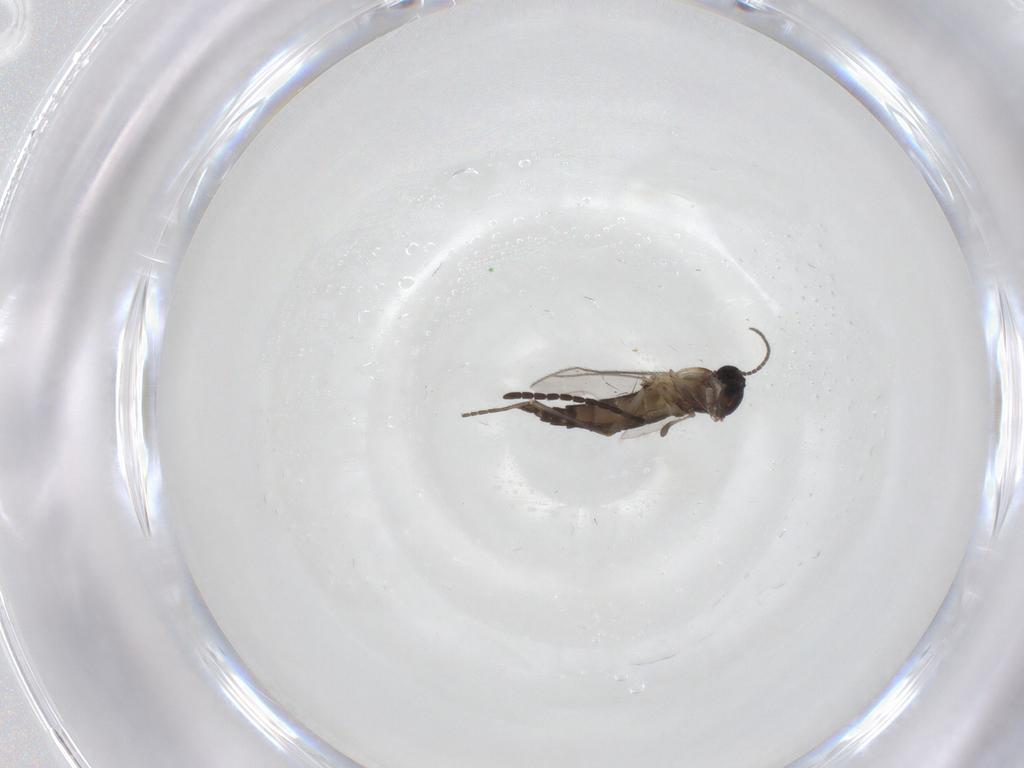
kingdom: Animalia
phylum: Arthropoda
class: Insecta
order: Diptera
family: Sciaridae
